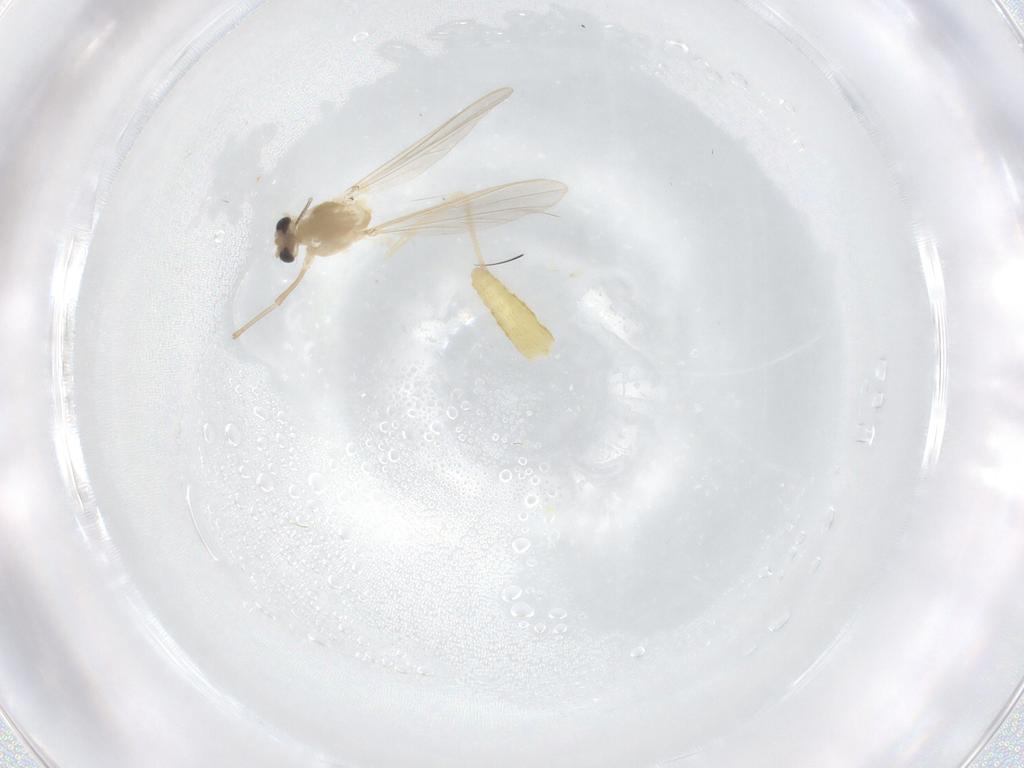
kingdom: Animalia
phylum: Arthropoda
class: Insecta
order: Diptera
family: Chironomidae
